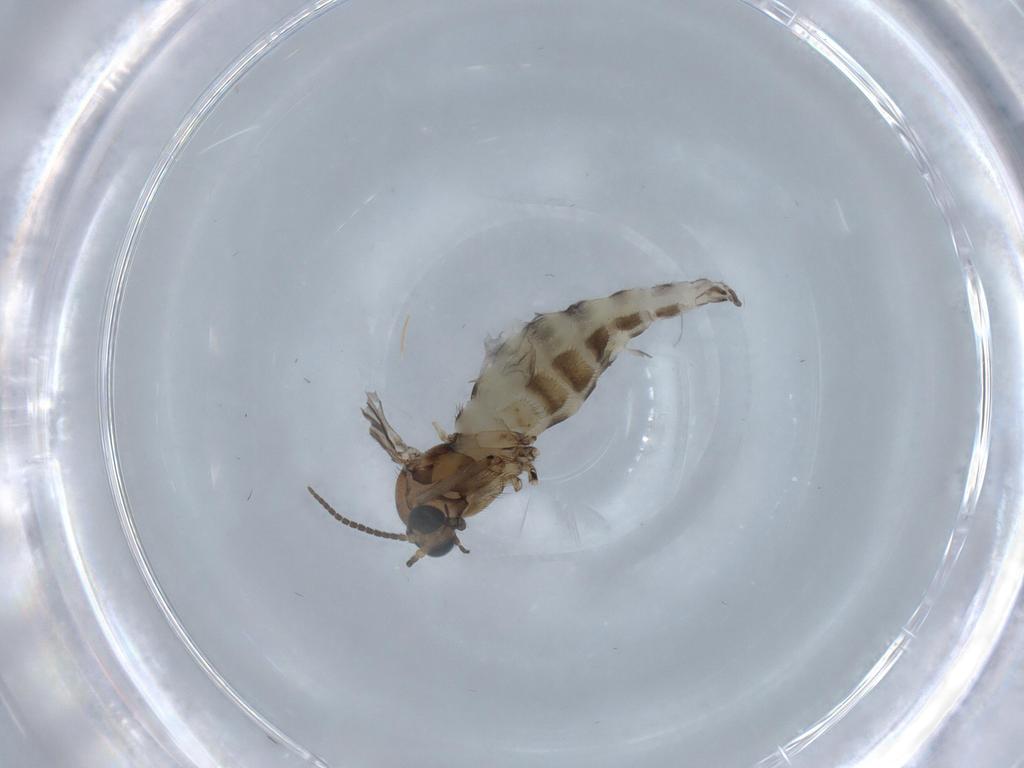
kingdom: Animalia
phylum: Arthropoda
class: Insecta
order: Diptera
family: Sciaridae
